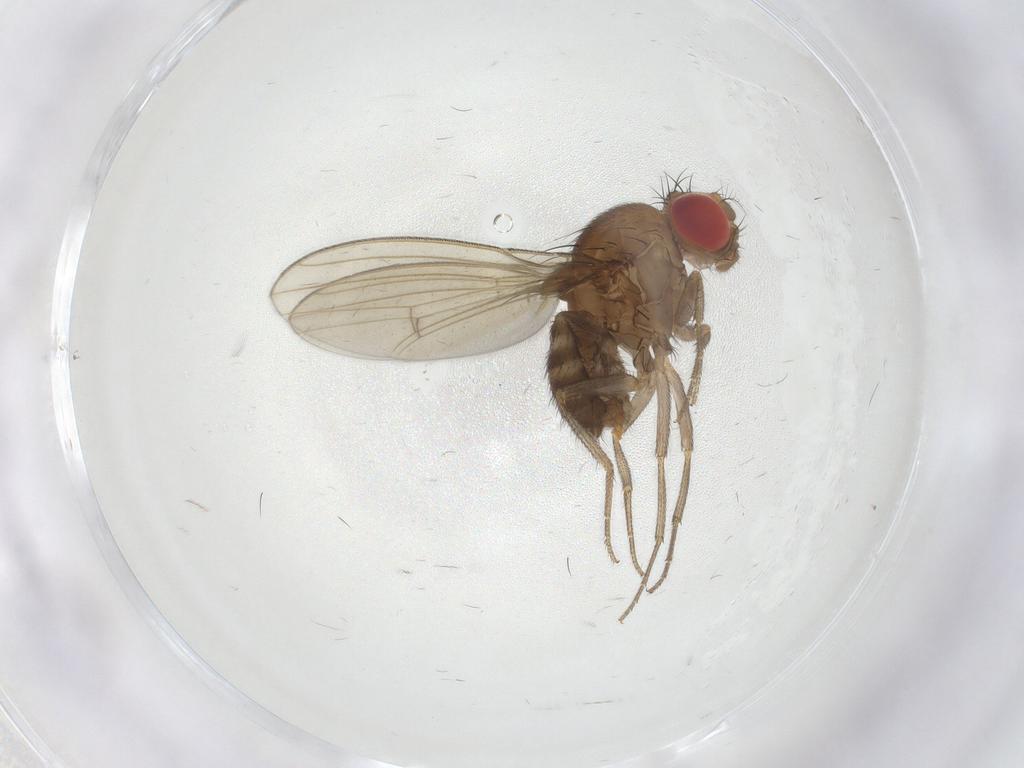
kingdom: Animalia
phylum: Arthropoda
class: Insecta
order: Diptera
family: Drosophilidae
